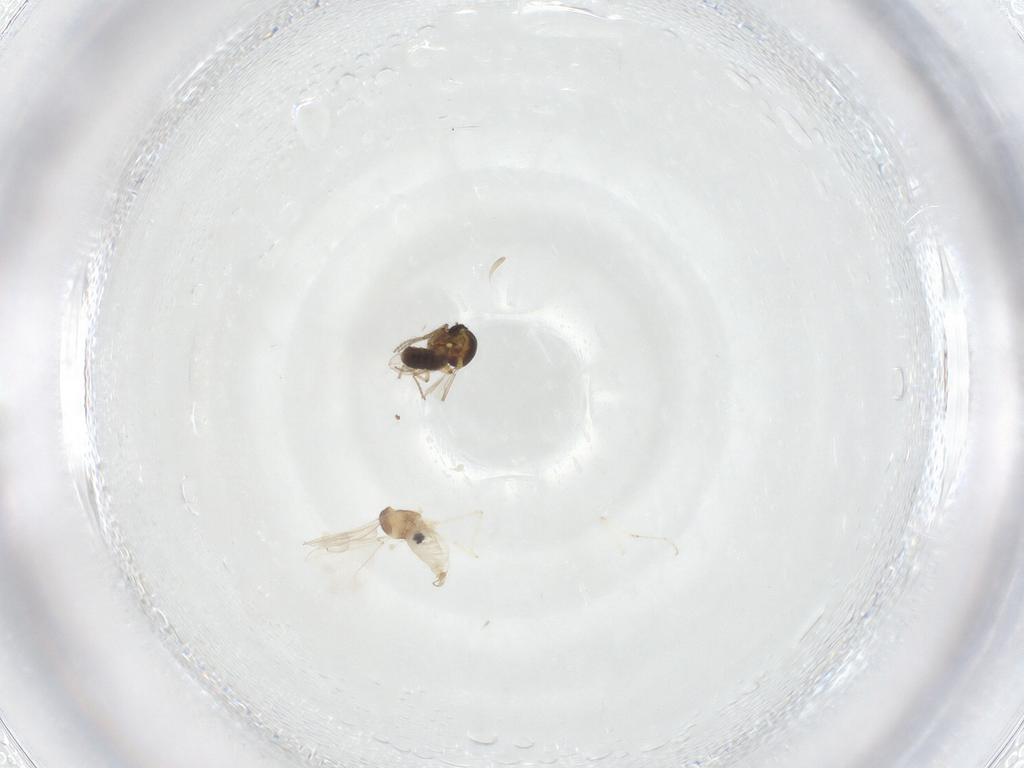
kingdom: Animalia
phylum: Arthropoda
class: Insecta
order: Diptera
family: Ceratopogonidae
